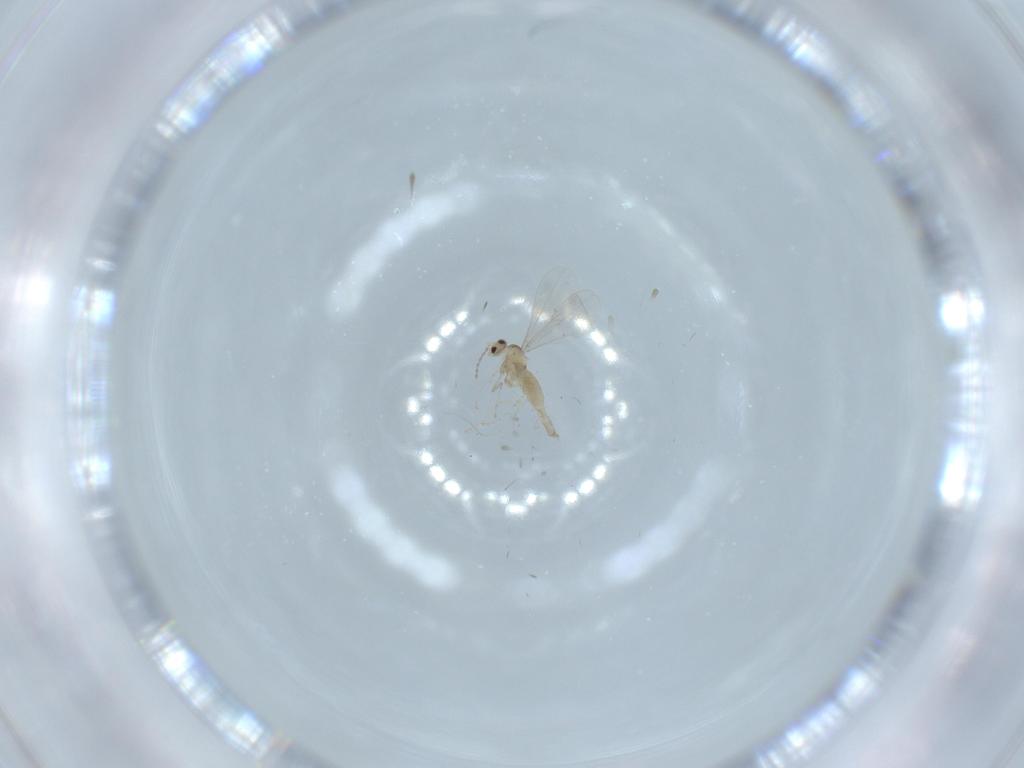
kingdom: Animalia
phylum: Arthropoda
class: Insecta
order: Diptera
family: Cecidomyiidae
